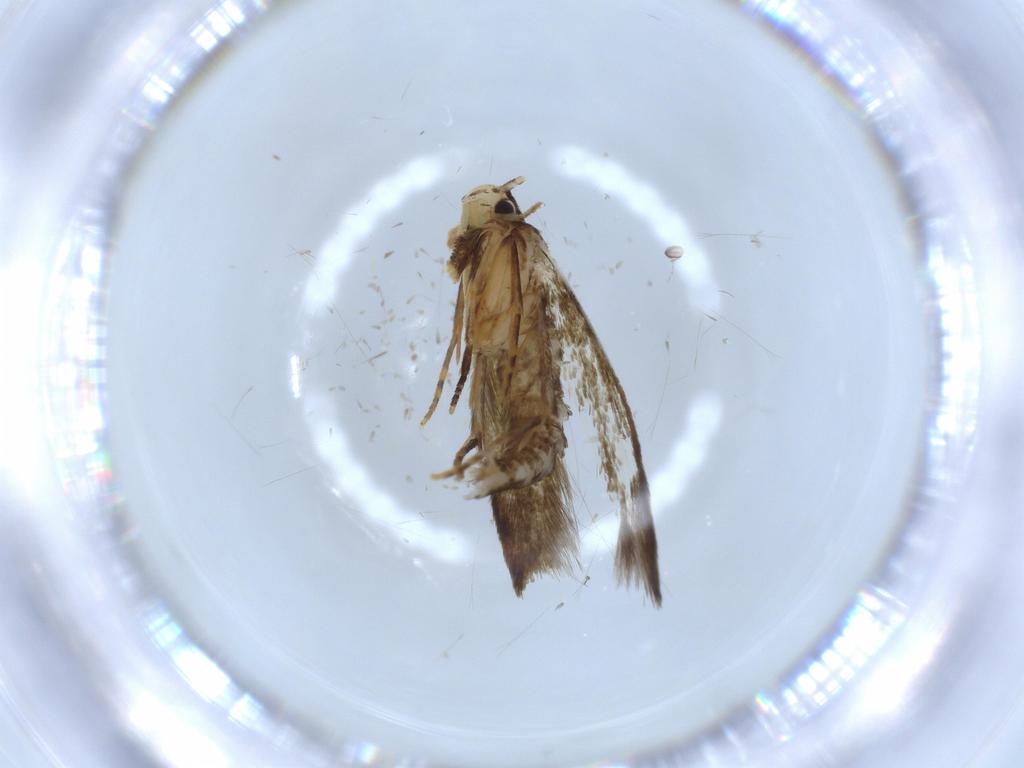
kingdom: Animalia
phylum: Arthropoda
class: Insecta
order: Lepidoptera
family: Tineidae
